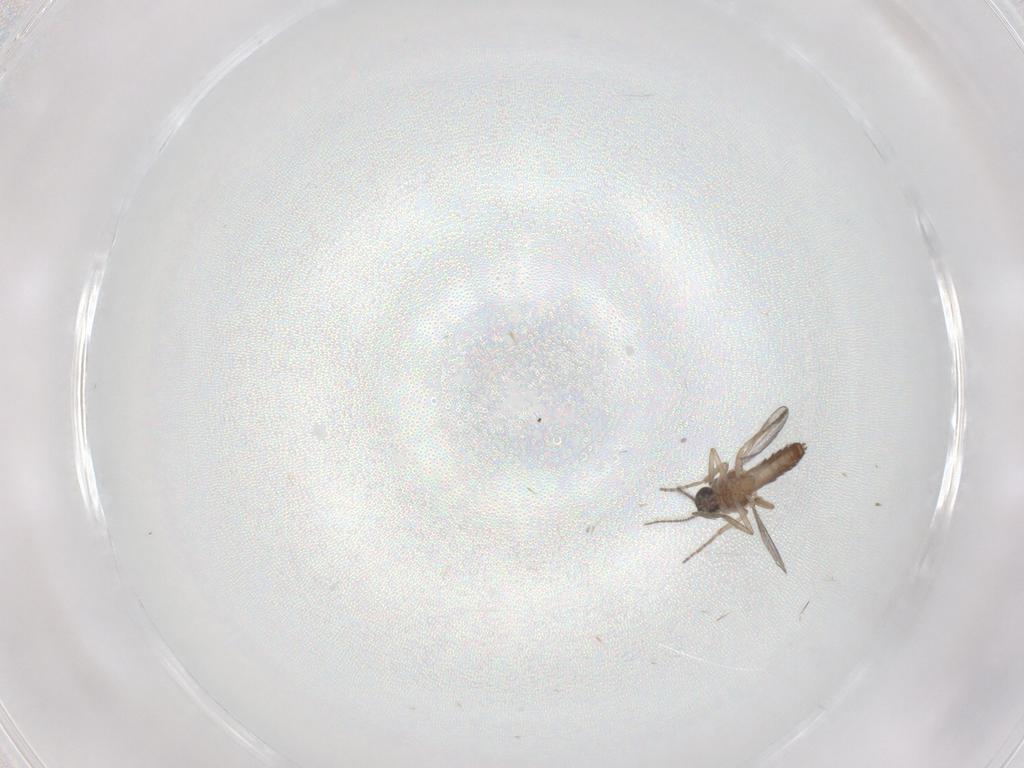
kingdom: Animalia
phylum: Arthropoda
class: Insecta
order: Diptera
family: Ceratopogonidae
